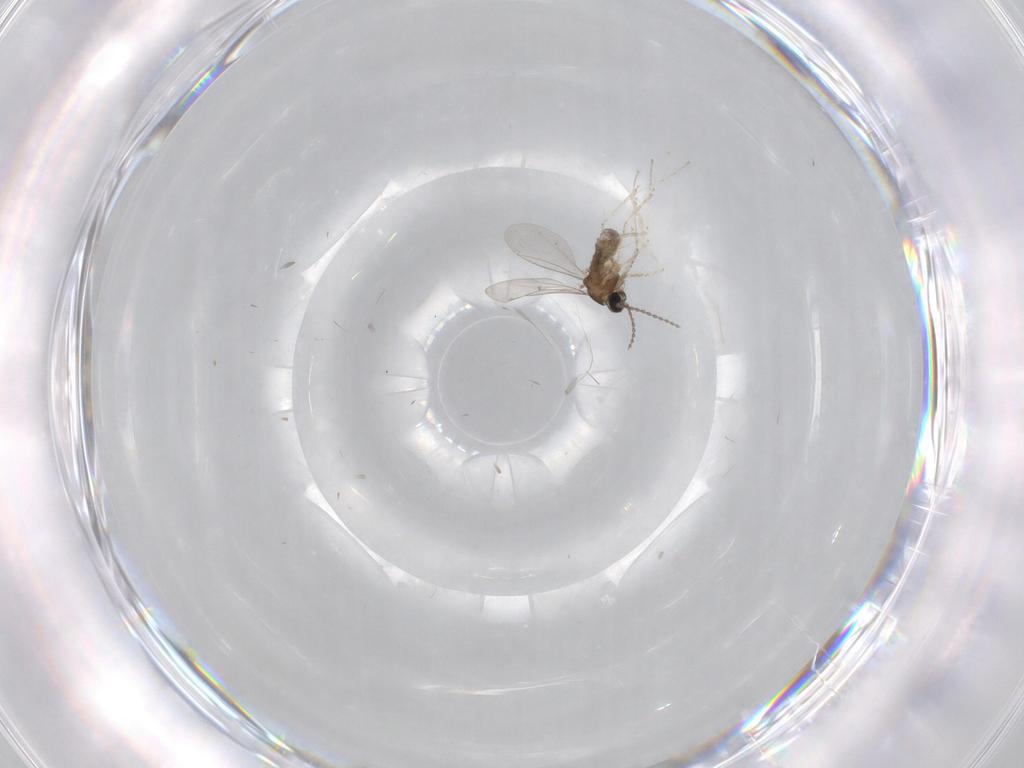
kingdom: Animalia
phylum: Arthropoda
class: Insecta
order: Diptera
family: Cecidomyiidae
